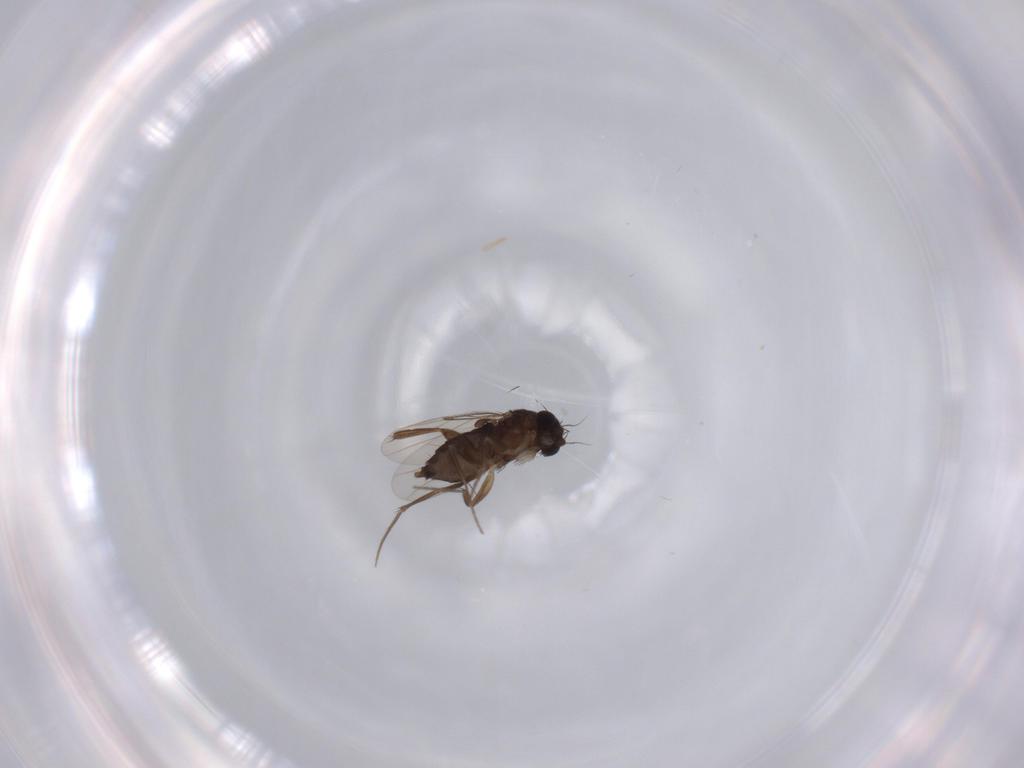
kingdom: Animalia
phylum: Arthropoda
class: Insecta
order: Diptera
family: Phoridae
